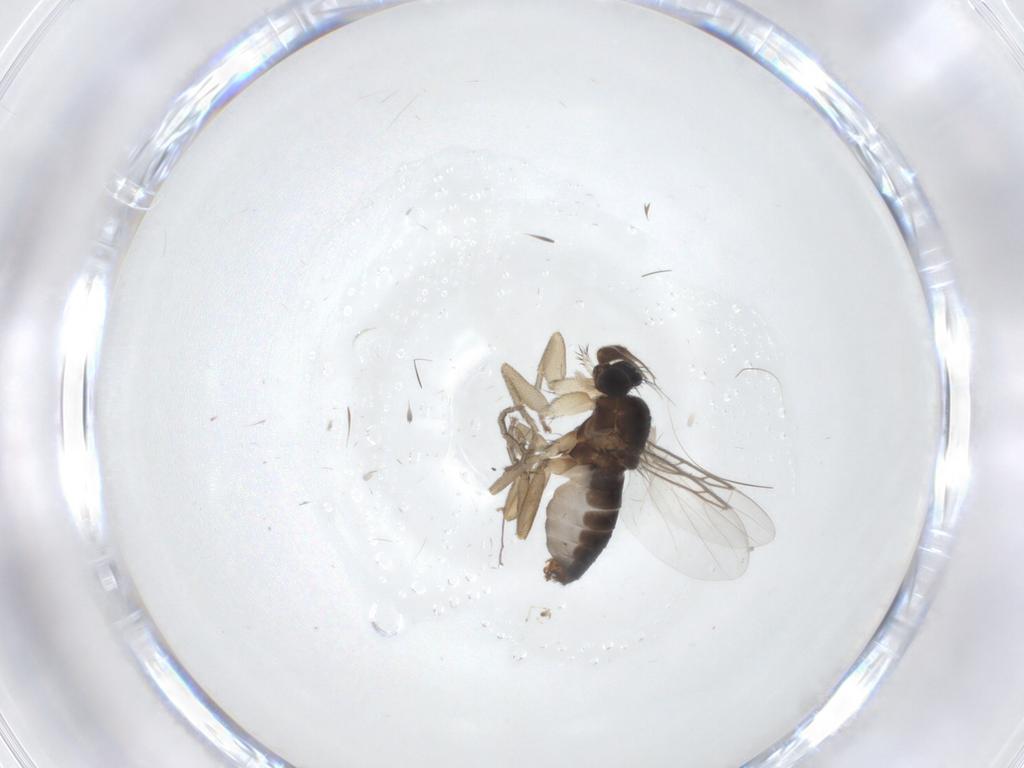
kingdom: Animalia
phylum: Arthropoda
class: Insecta
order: Diptera
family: Phoridae
